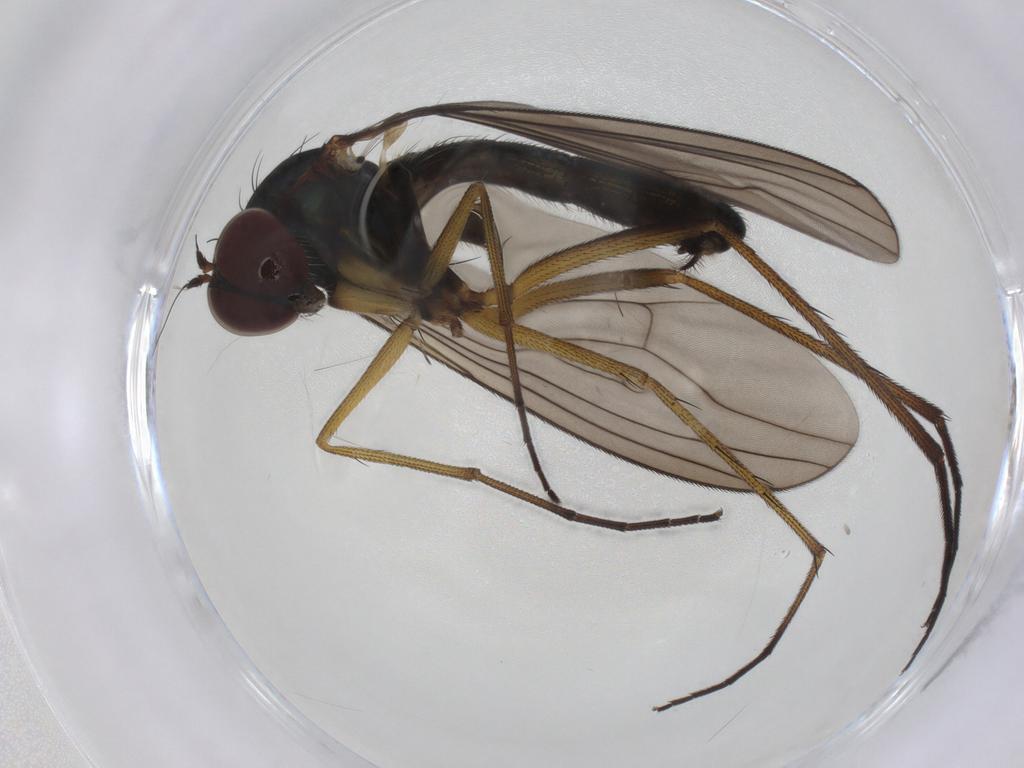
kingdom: Animalia
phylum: Arthropoda
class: Insecta
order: Diptera
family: Dolichopodidae
